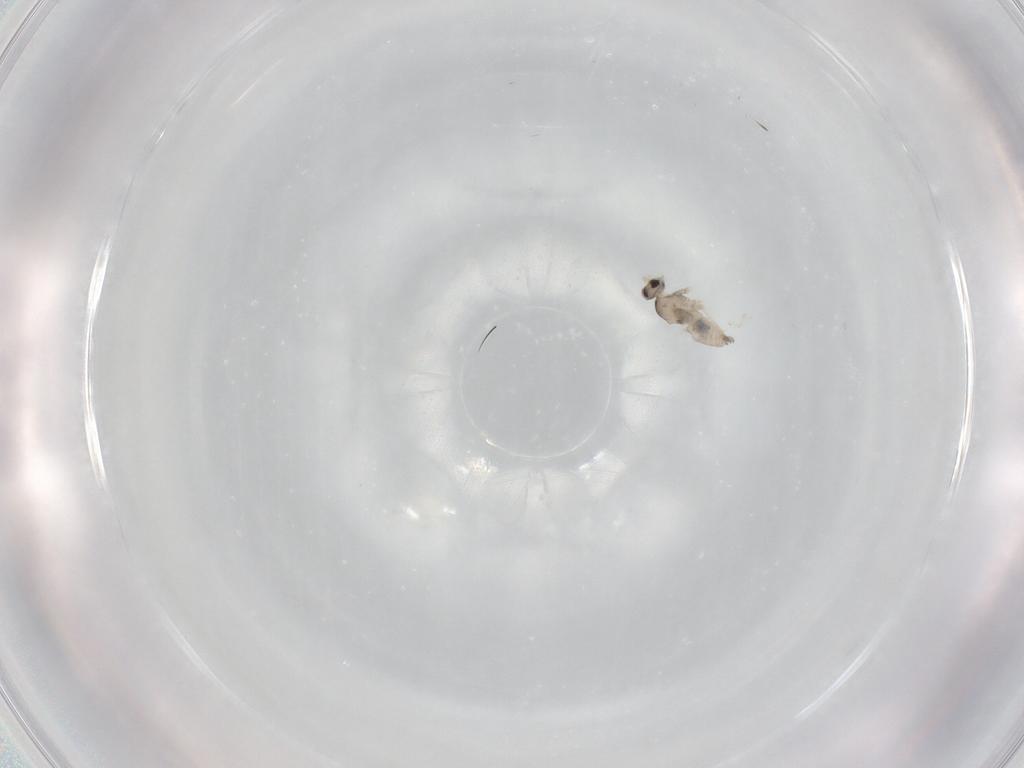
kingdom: Animalia
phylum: Arthropoda
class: Insecta
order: Diptera
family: Cecidomyiidae
